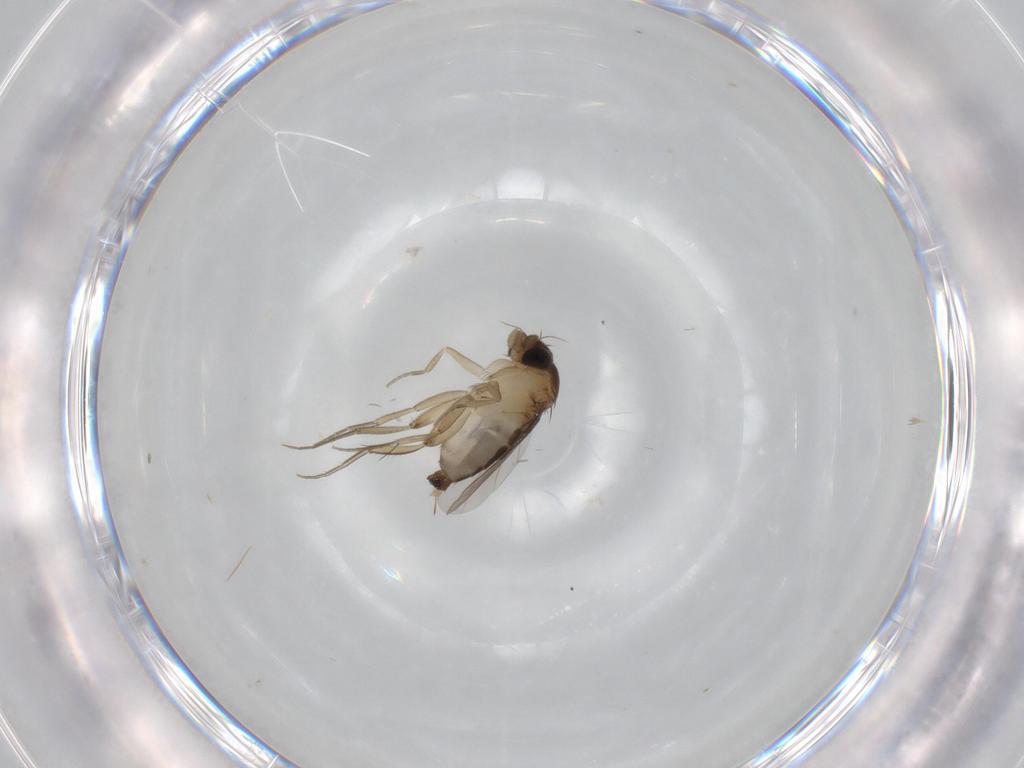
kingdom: Animalia
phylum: Arthropoda
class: Insecta
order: Diptera
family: Phoridae
